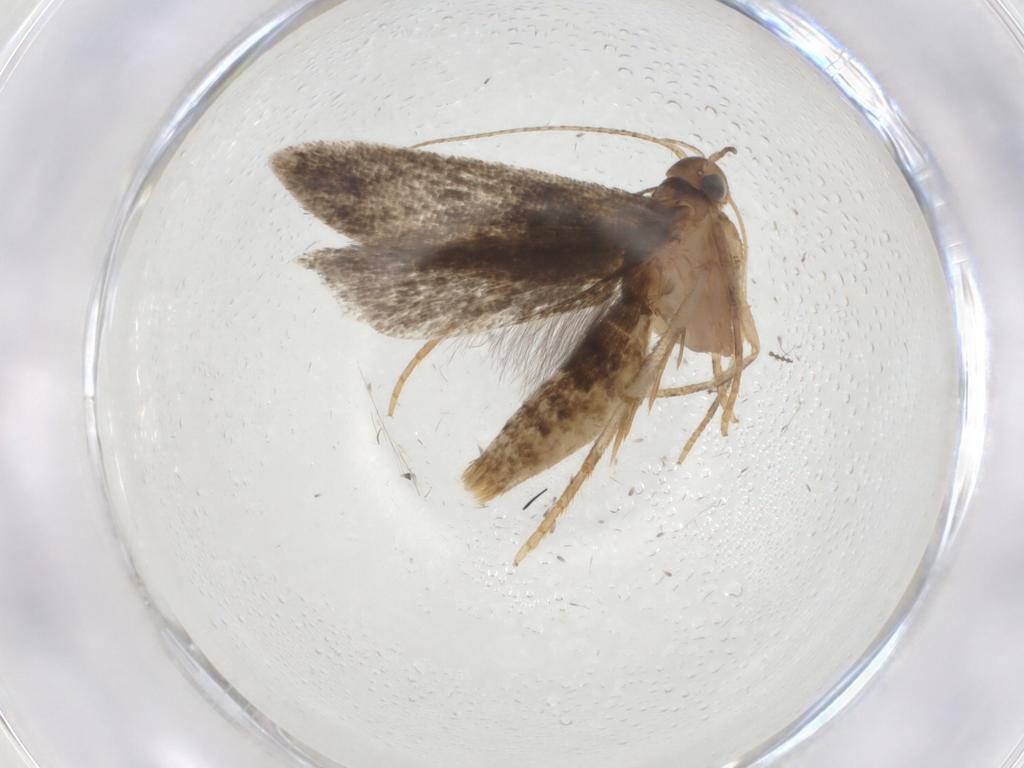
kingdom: Animalia
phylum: Arthropoda
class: Insecta
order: Lepidoptera
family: Gelechiidae
